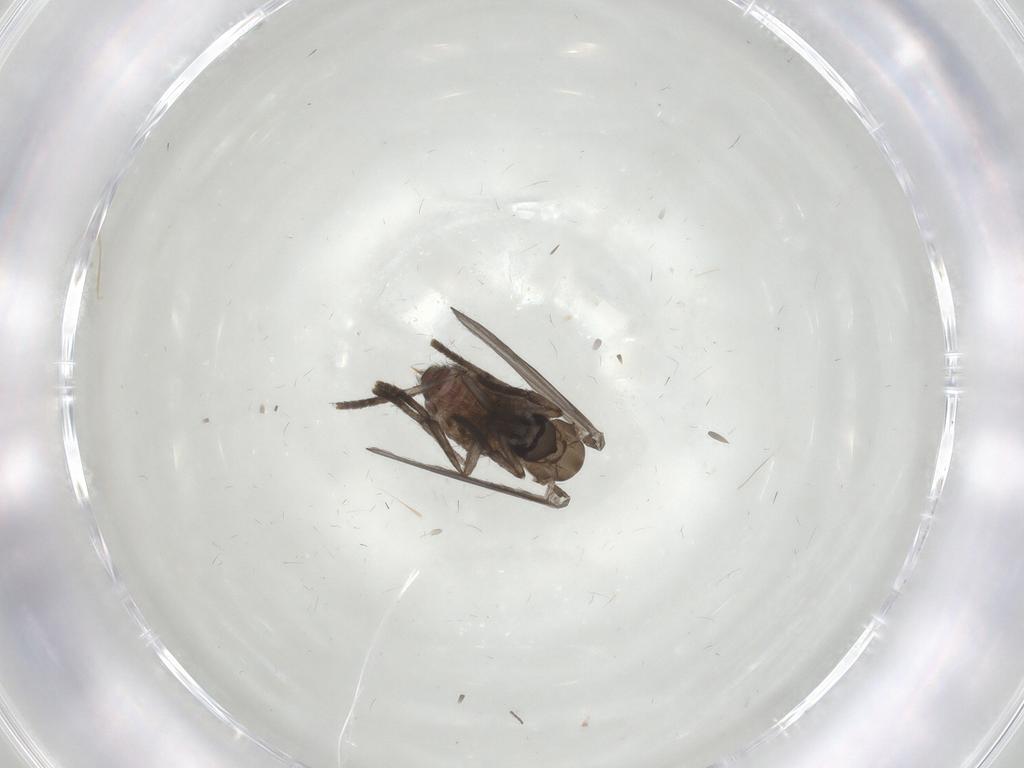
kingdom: Animalia
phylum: Arthropoda
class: Insecta
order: Diptera
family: Psychodidae
